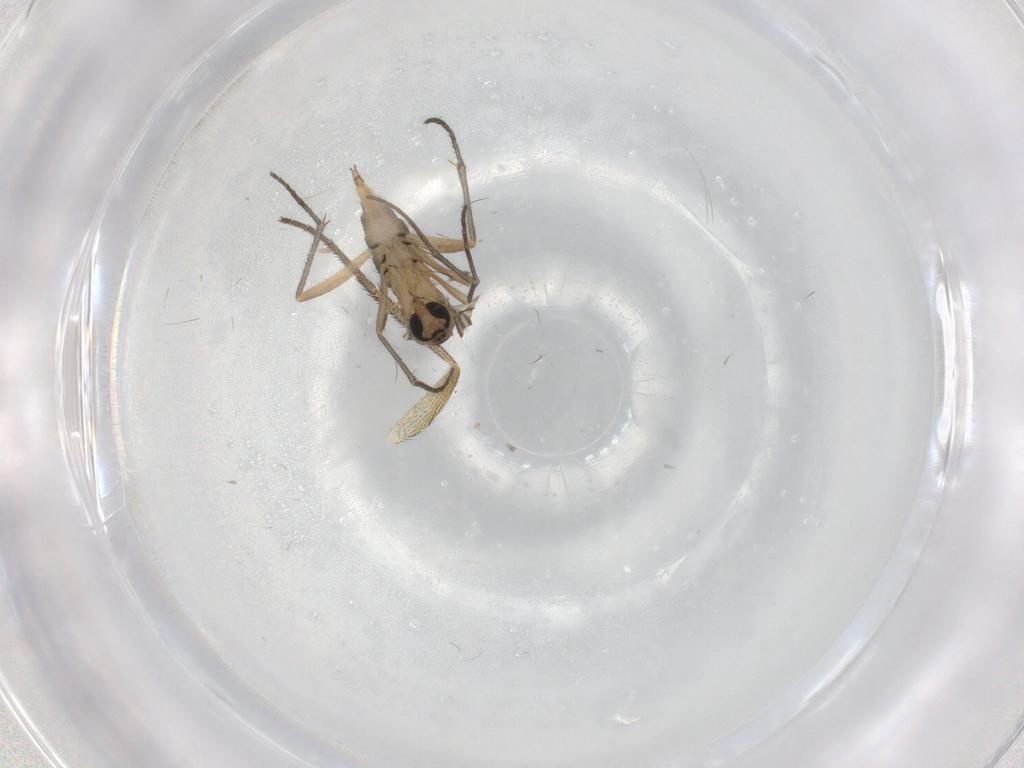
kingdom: Animalia
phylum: Arthropoda
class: Insecta
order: Diptera
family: Sciaridae
